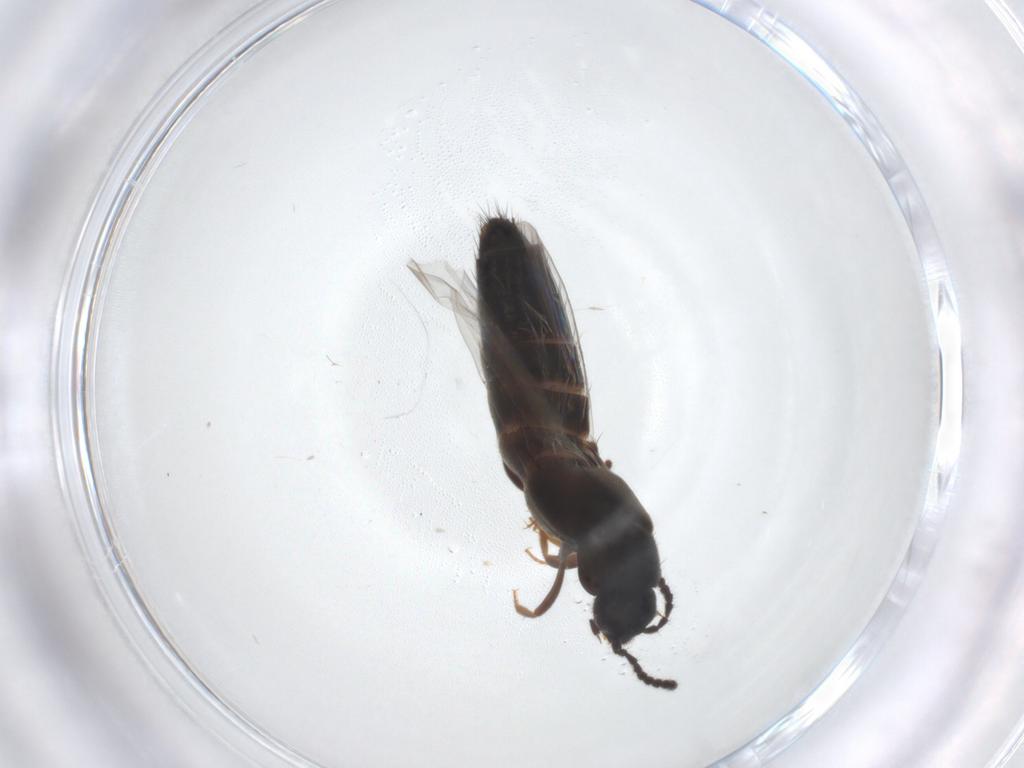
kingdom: Animalia
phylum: Arthropoda
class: Insecta
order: Coleoptera
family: Staphylinidae
